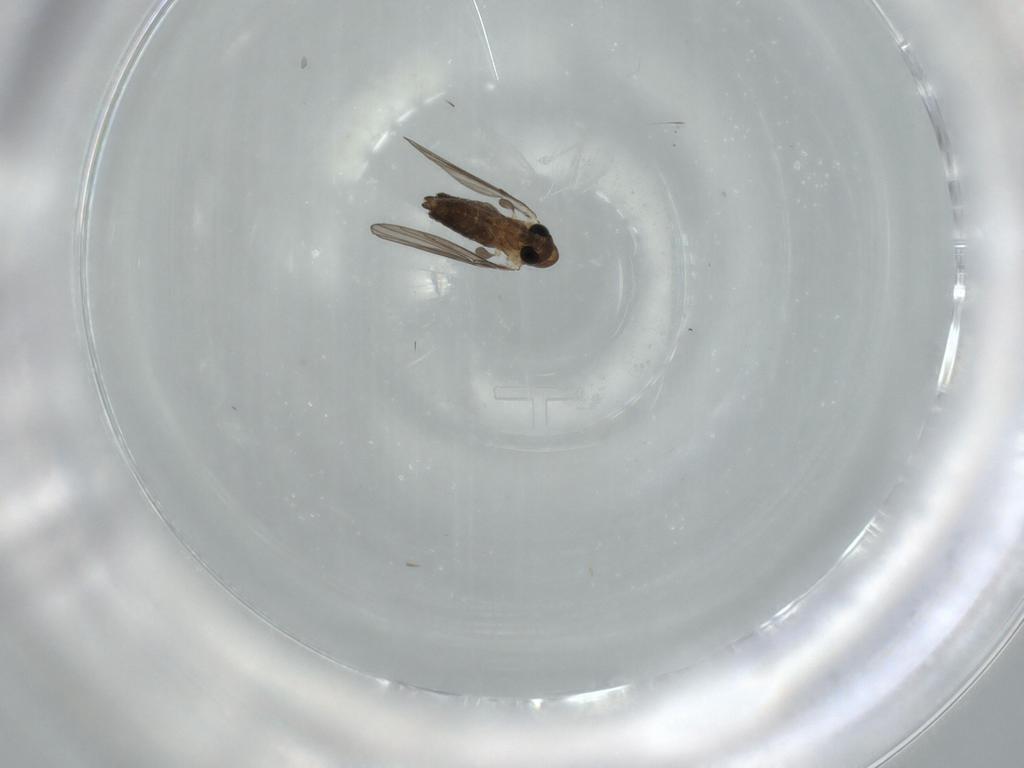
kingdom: Animalia
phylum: Arthropoda
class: Insecta
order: Diptera
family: Psychodidae
